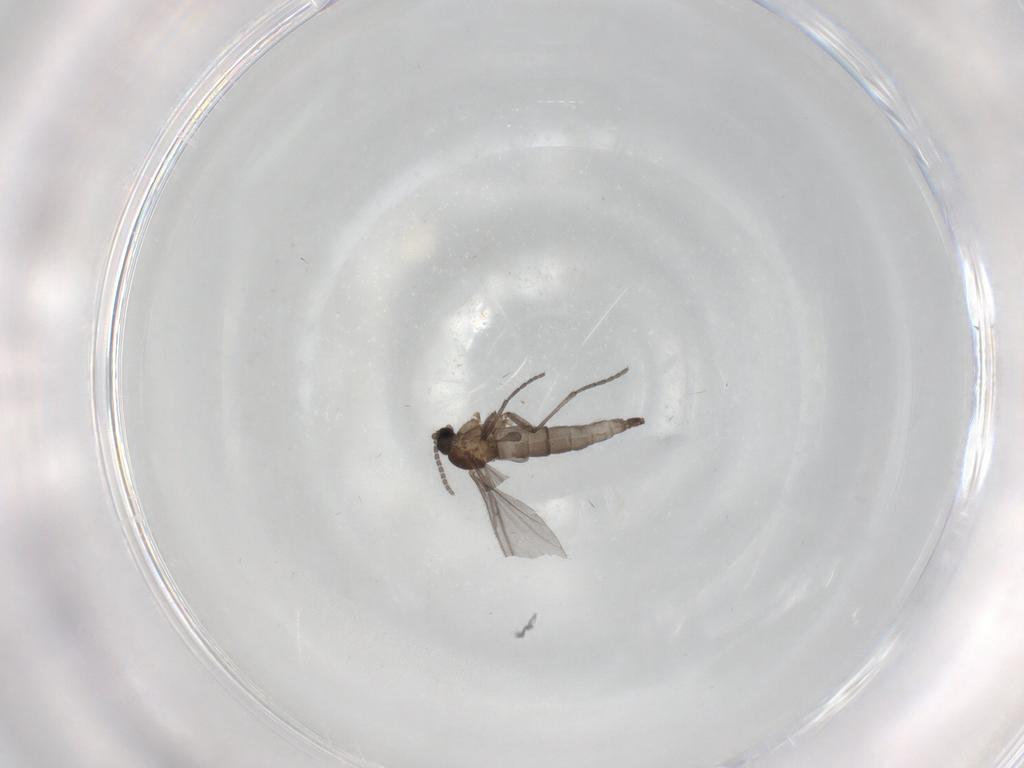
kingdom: Animalia
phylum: Arthropoda
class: Insecta
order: Diptera
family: Sciaridae
